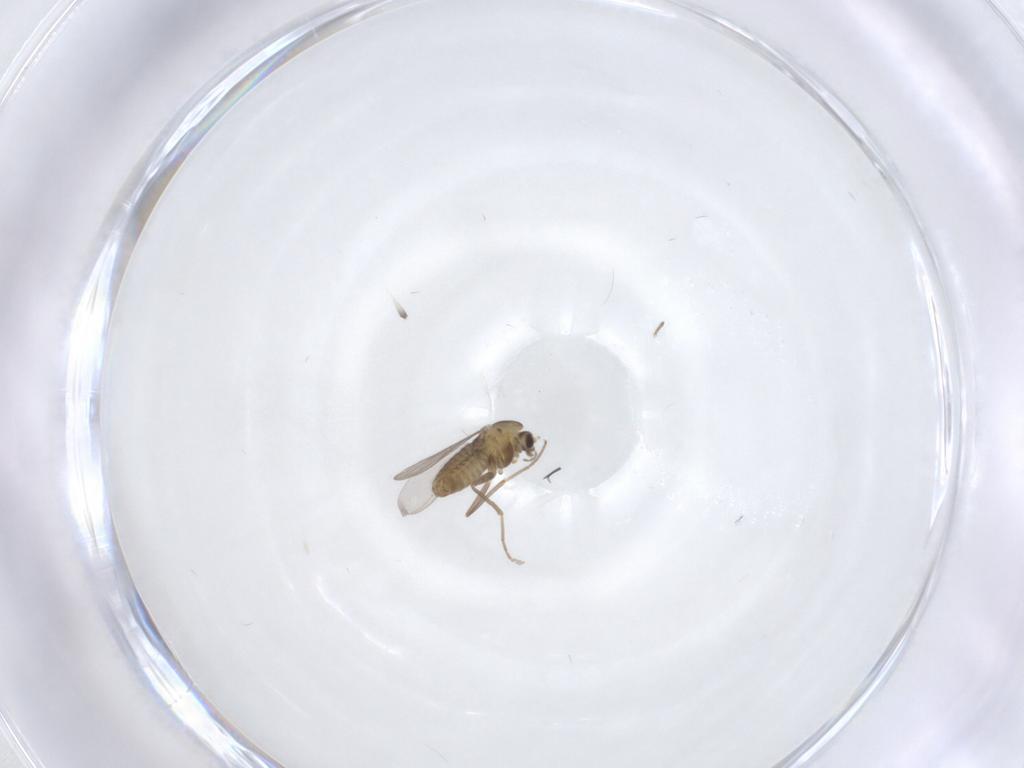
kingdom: Animalia
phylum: Arthropoda
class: Insecta
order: Diptera
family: Chironomidae
